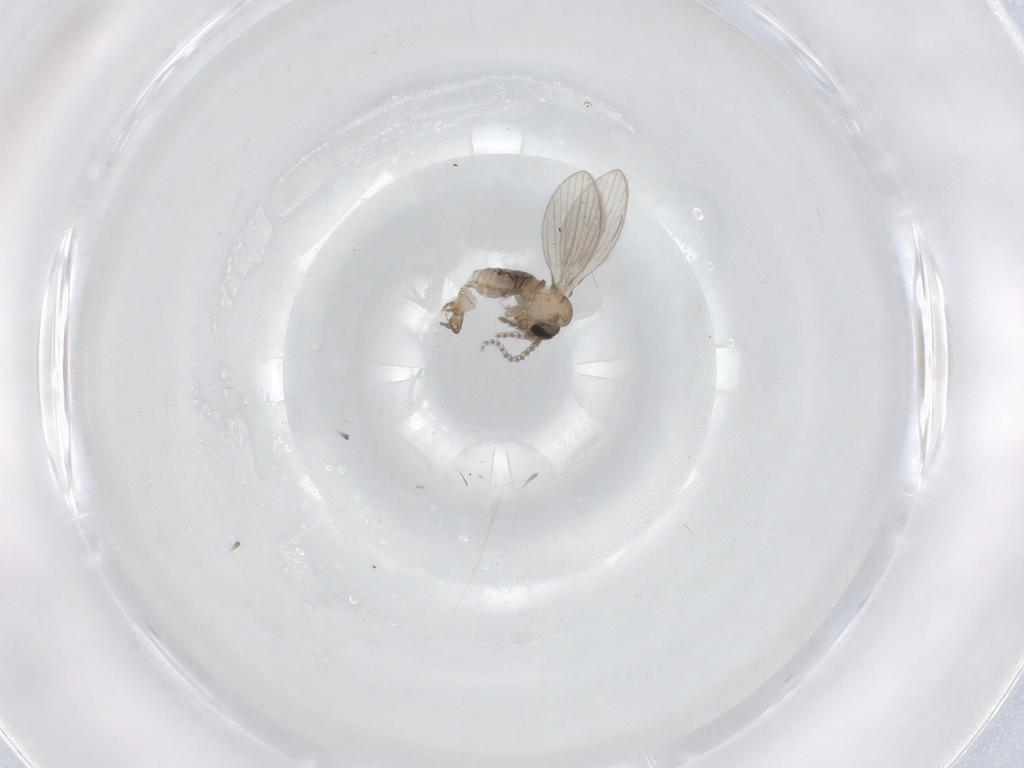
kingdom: Animalia
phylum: Arthropoda
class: Insecta
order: Diptera
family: Psychodidae
